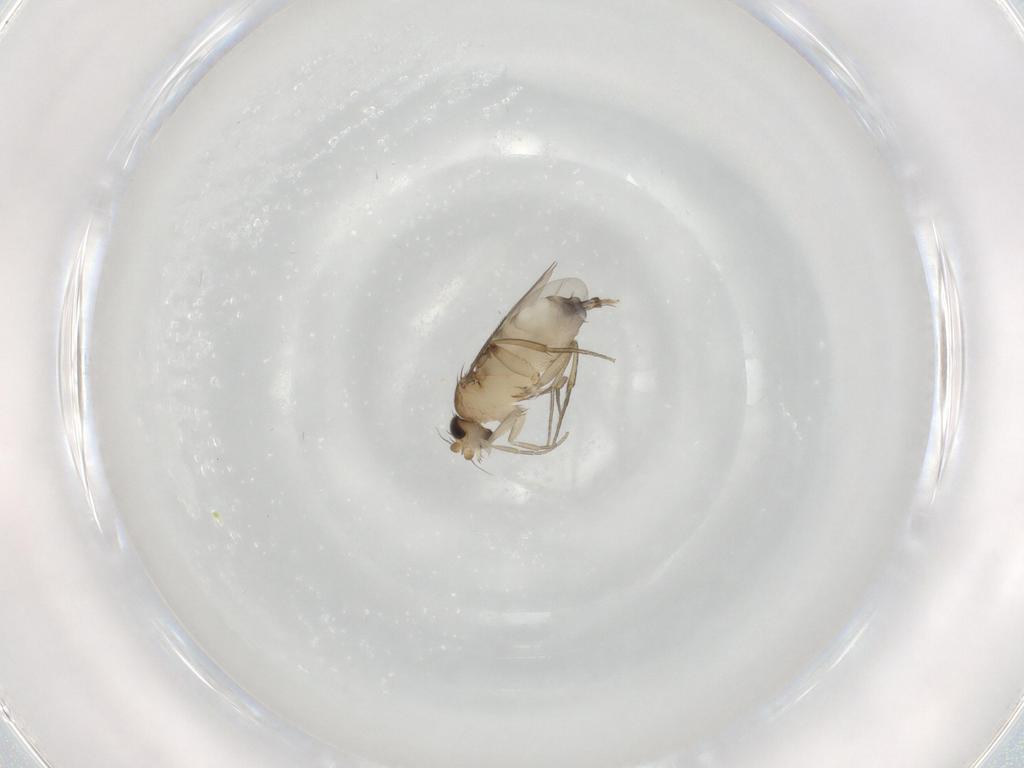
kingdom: Animalia
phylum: Arthropoda
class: Insecta
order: Diptera
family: Phoridae
